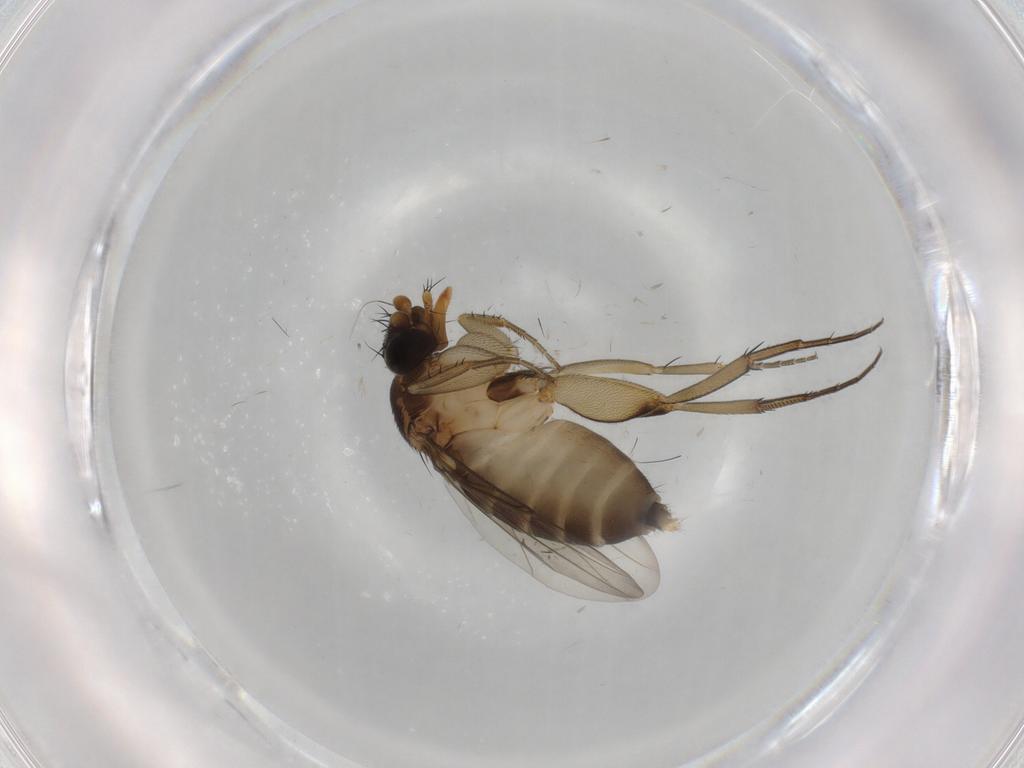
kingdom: Animalia
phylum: Arthropoda
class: Insecta
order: Diptera
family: Phoridae
